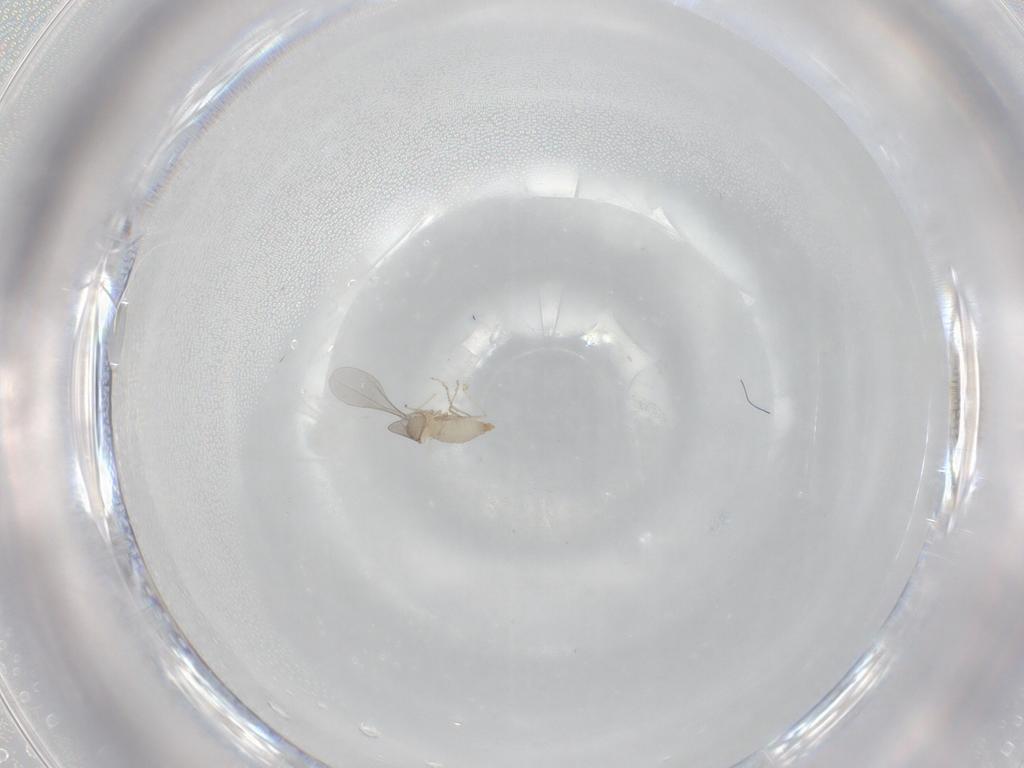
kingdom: Animalia
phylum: Arthropoda
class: Insecta
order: Diptera
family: Cecidomyiidae
